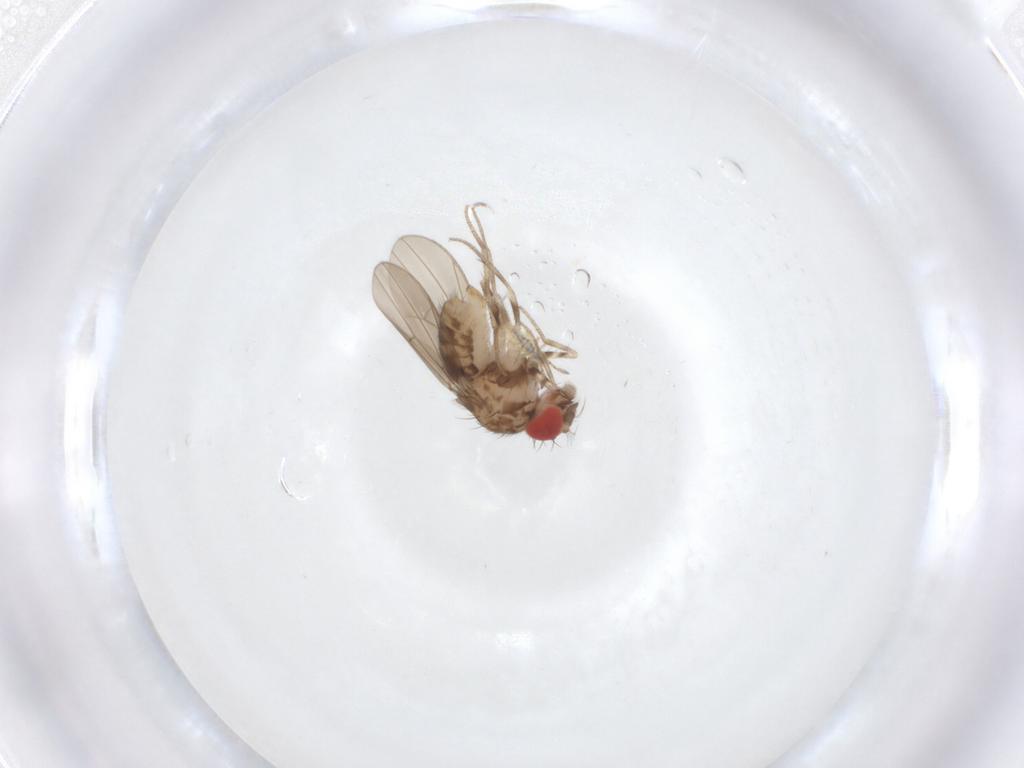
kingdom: Animalia
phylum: Arthropoda
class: Insecta
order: Diptera
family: Drosophilidae
